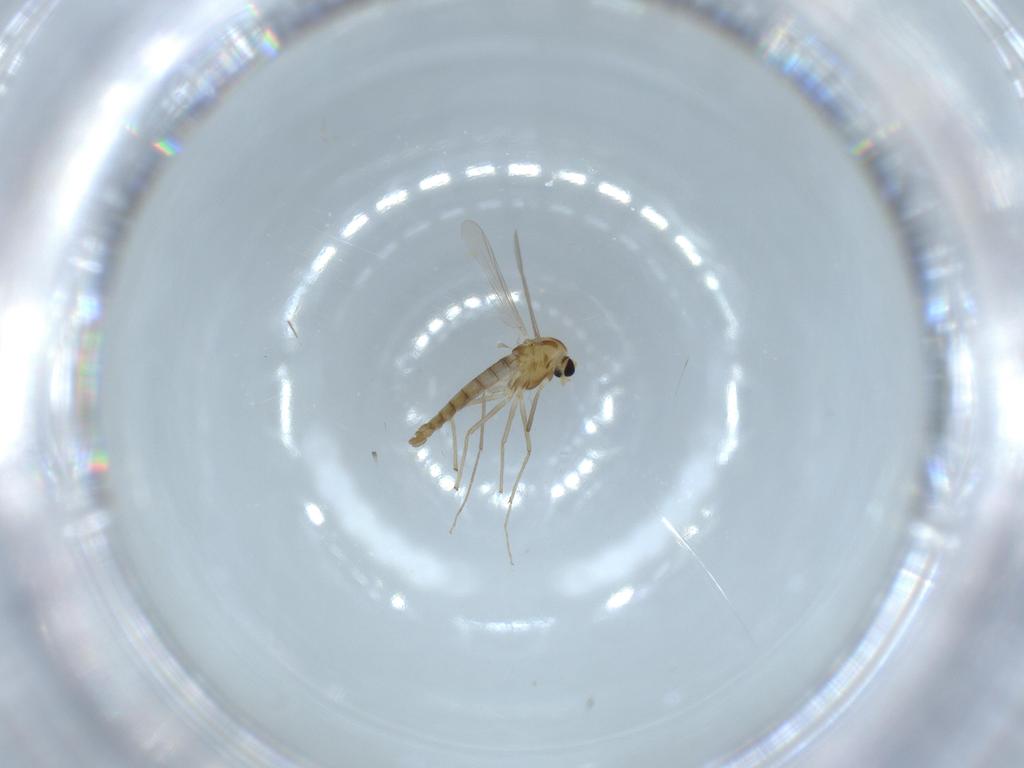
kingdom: Animalia
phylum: Arthropoda
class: Insecta
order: Diptera
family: Chironomidae
